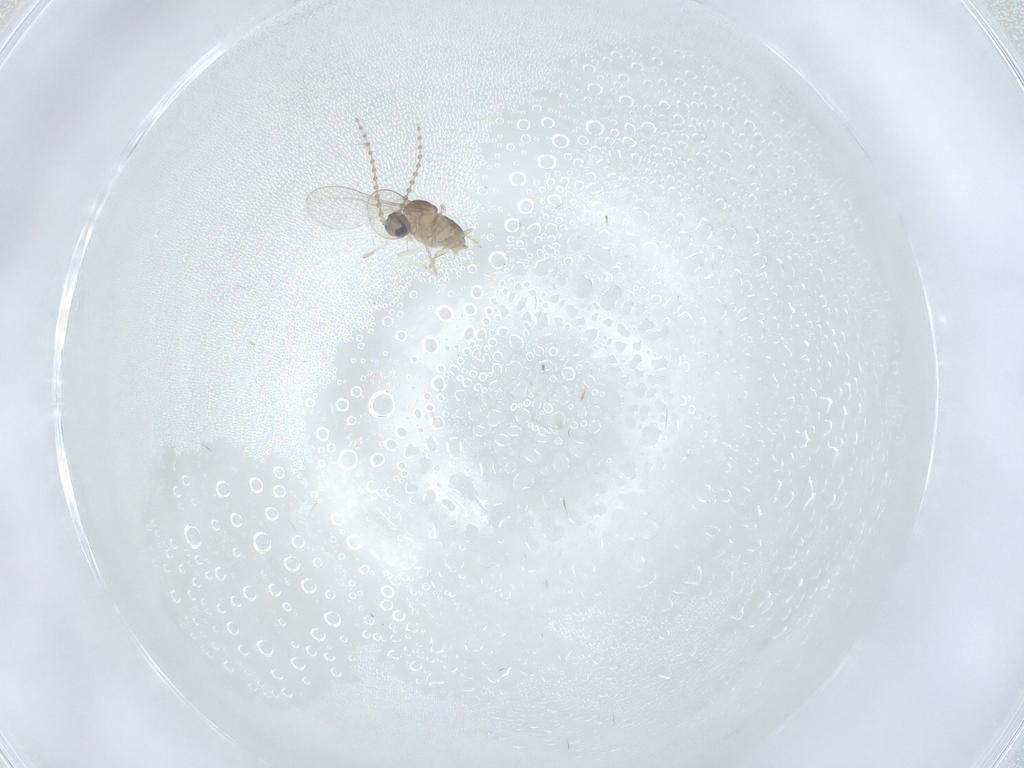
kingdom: Animalia
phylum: Arthropoda
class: Insecta
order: Diptera
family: Cecidomyiidae
